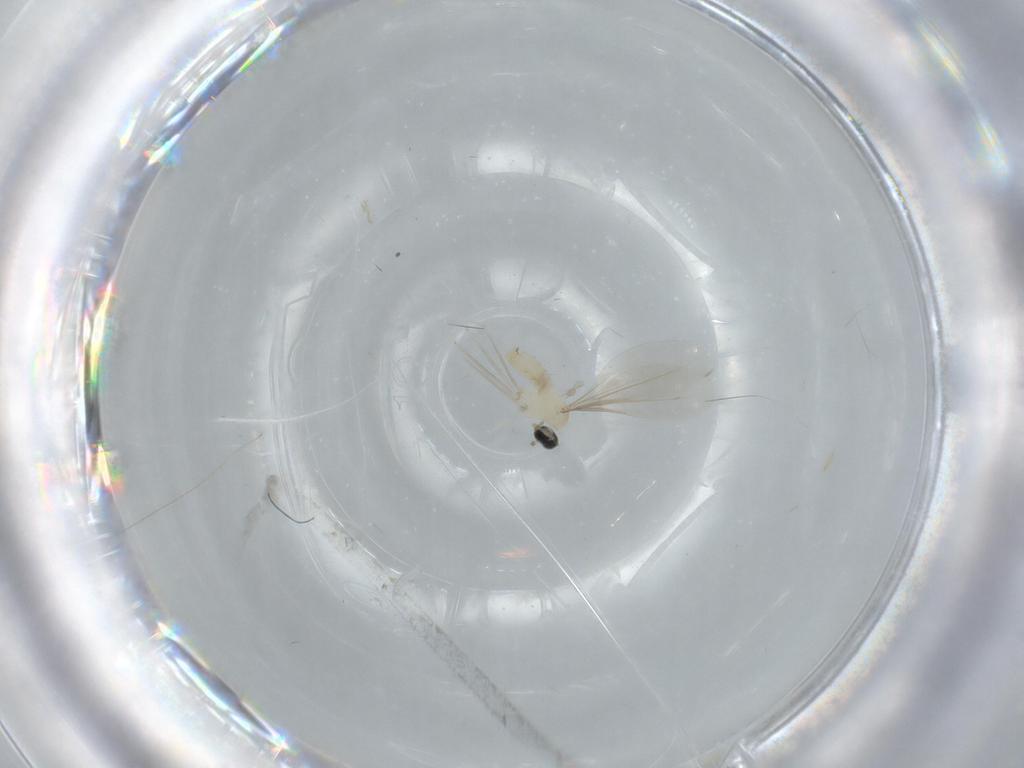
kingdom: Animalia
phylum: Arthropoda
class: Insecta
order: Diptera
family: Cecidomyiidae
